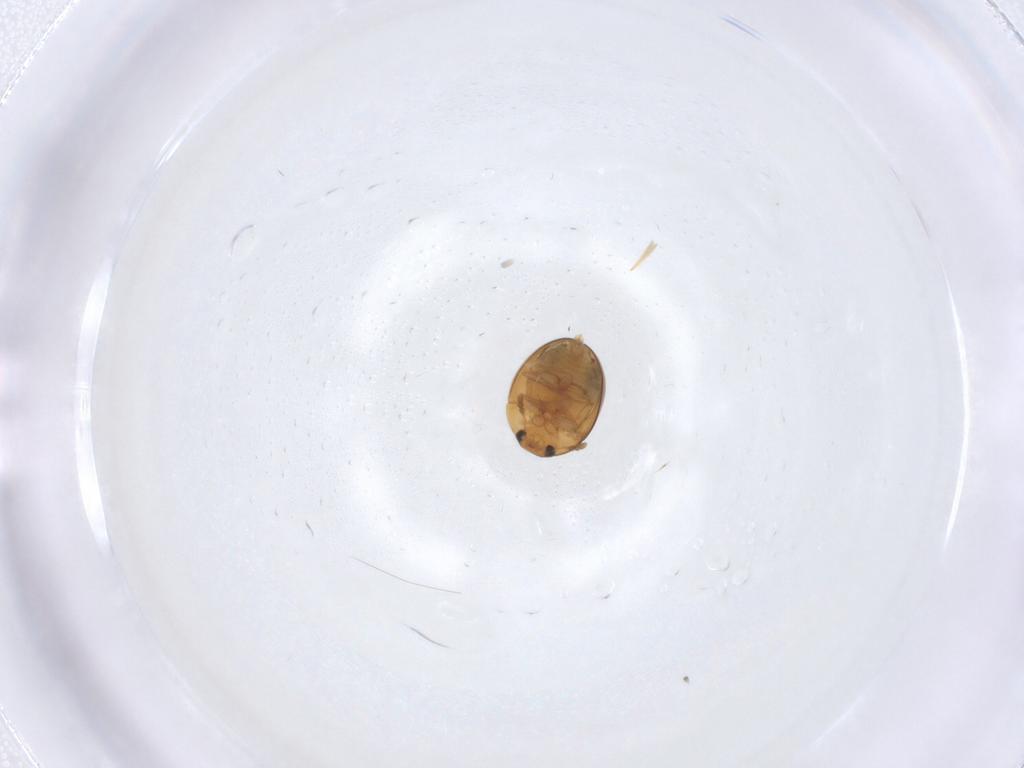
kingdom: Animalia
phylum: Arthropoda
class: Insecta
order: Coleoptera
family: Phalacridae
